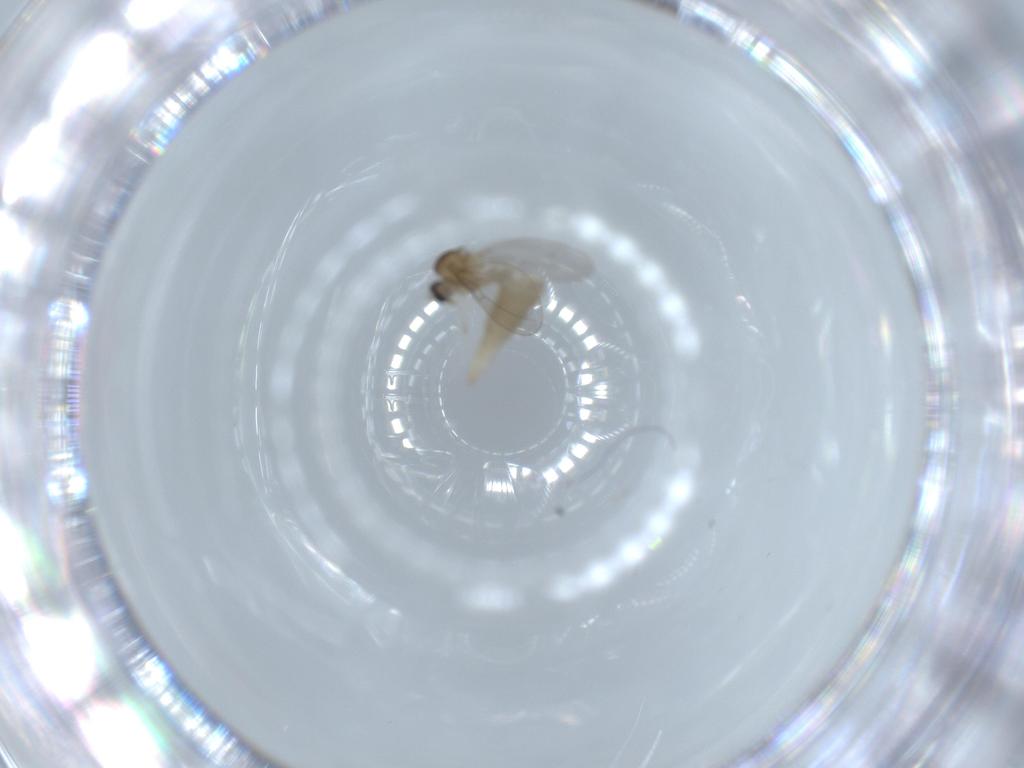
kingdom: Animalia
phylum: Arthropoda
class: Insecta
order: Diptera
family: Cecidomyiidae
